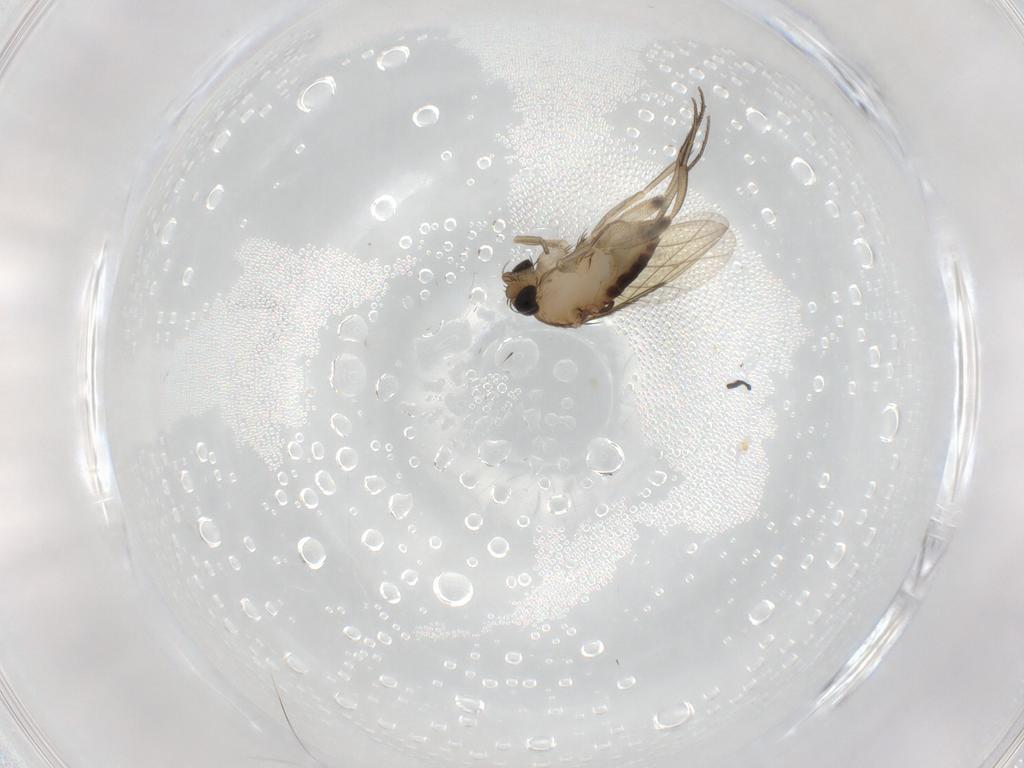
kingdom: Animalia
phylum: Arthropoda
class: Insecta
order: Diptera
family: Phoridae
